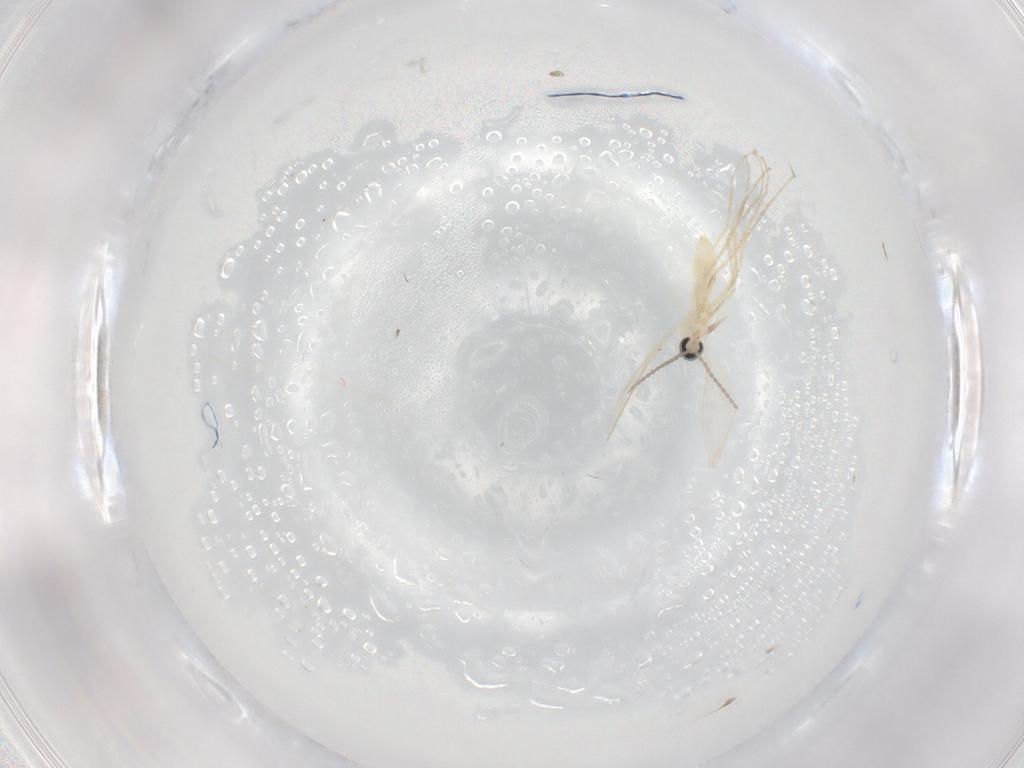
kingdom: Animalia
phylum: Arthropoda
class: Insecta
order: Diptera
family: Cecidomyiidae
